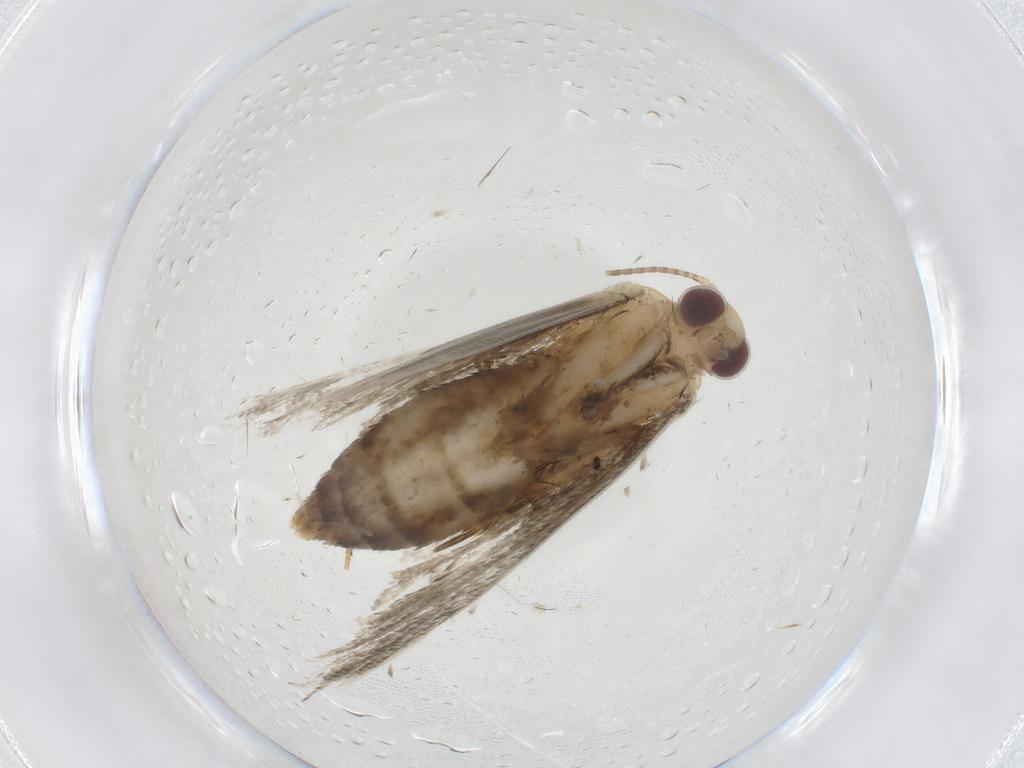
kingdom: Animalia
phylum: Arthropoda
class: Insecta
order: Lepidoptera
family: Erebidae
